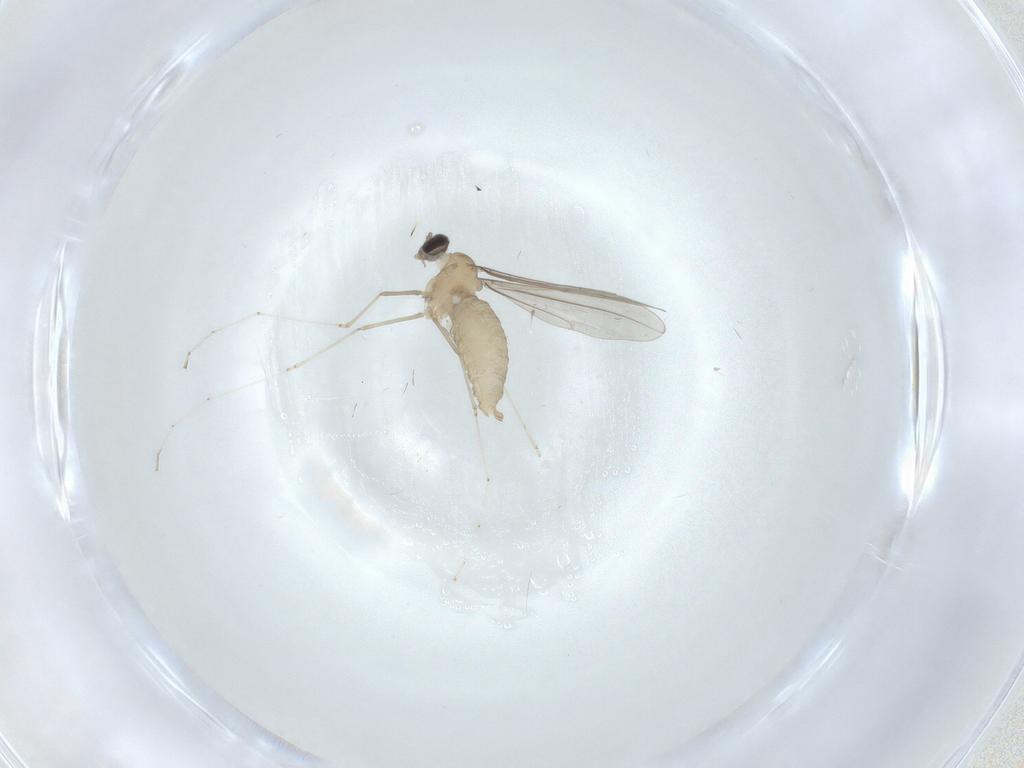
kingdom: Animalia
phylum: Arthropoda
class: Insecta
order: Diptera
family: Cecidomyiidae
